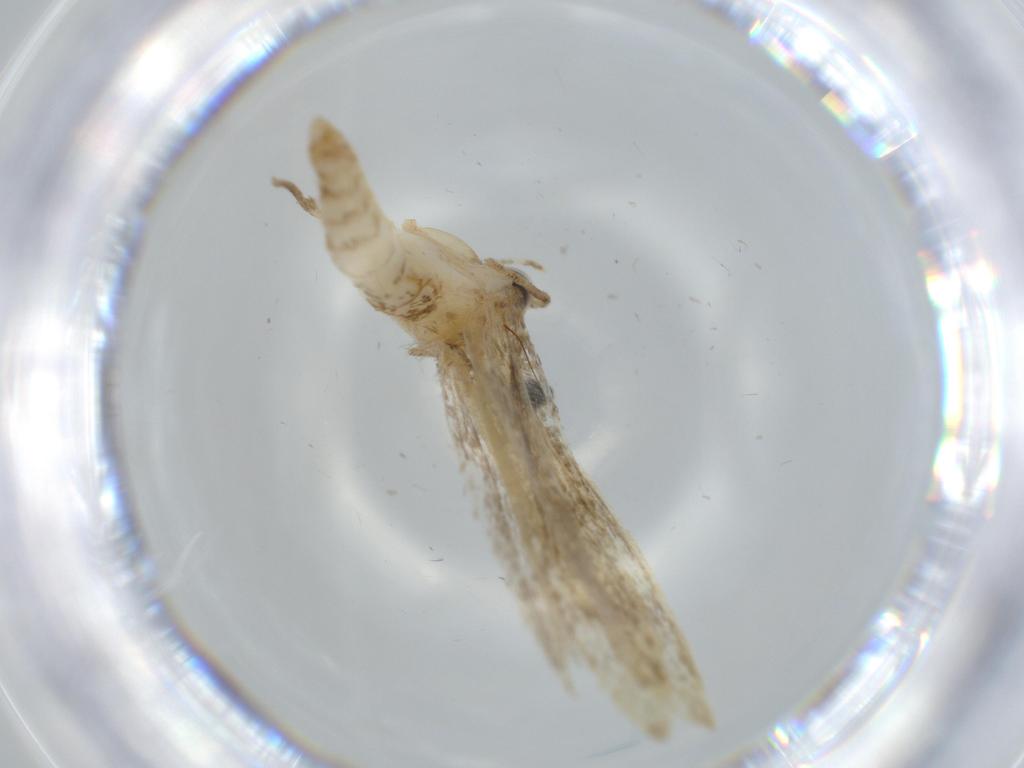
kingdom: Animalia
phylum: Arthropoda
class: Insecta
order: Lepidoptera
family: Tineidae
